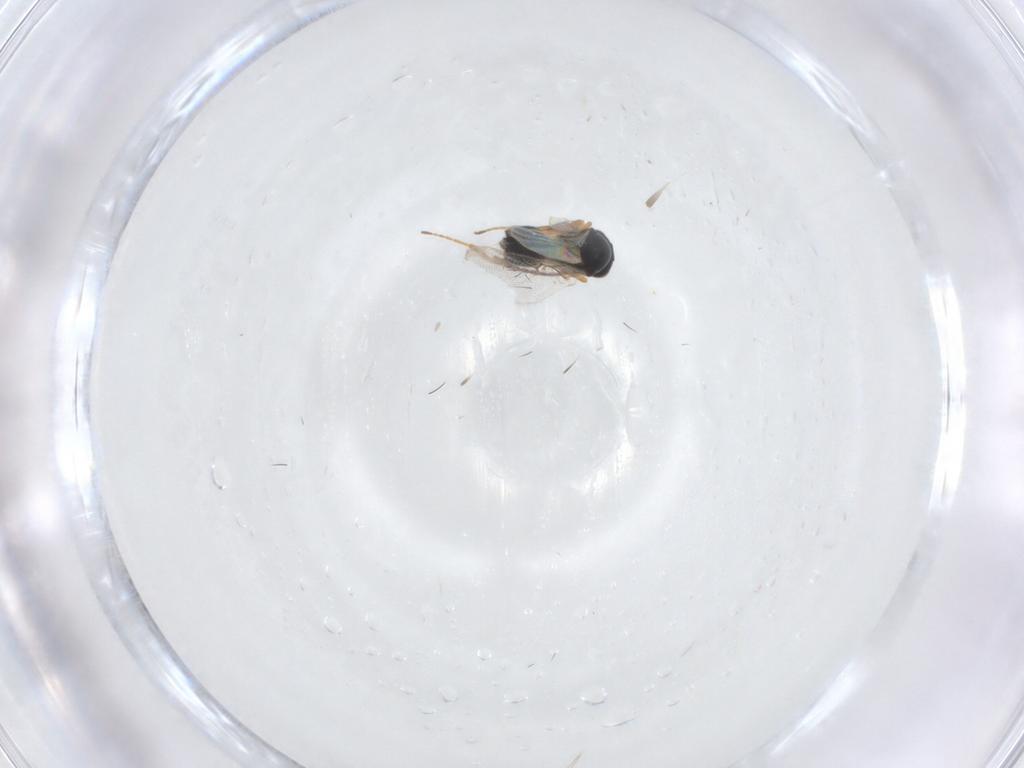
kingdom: Animalia
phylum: Arthropoda
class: Insecta
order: Hymenoptera
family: Figitidae
